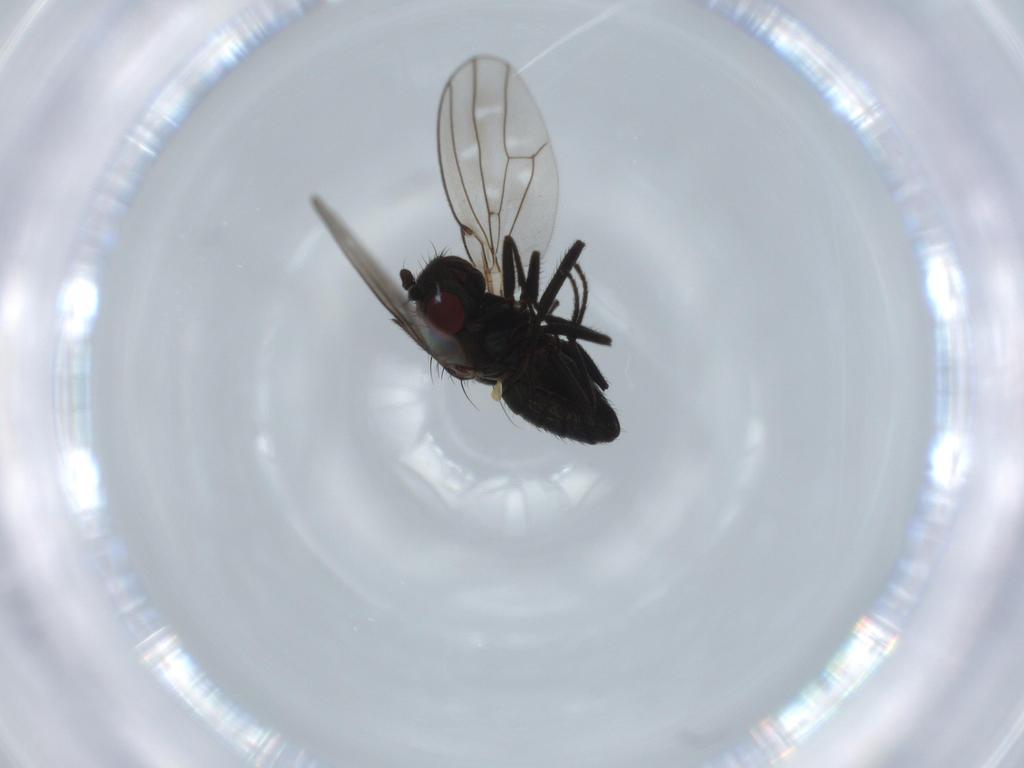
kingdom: Animalia
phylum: Arthropoda
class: Insecta
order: Diptera
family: Ephydridae
